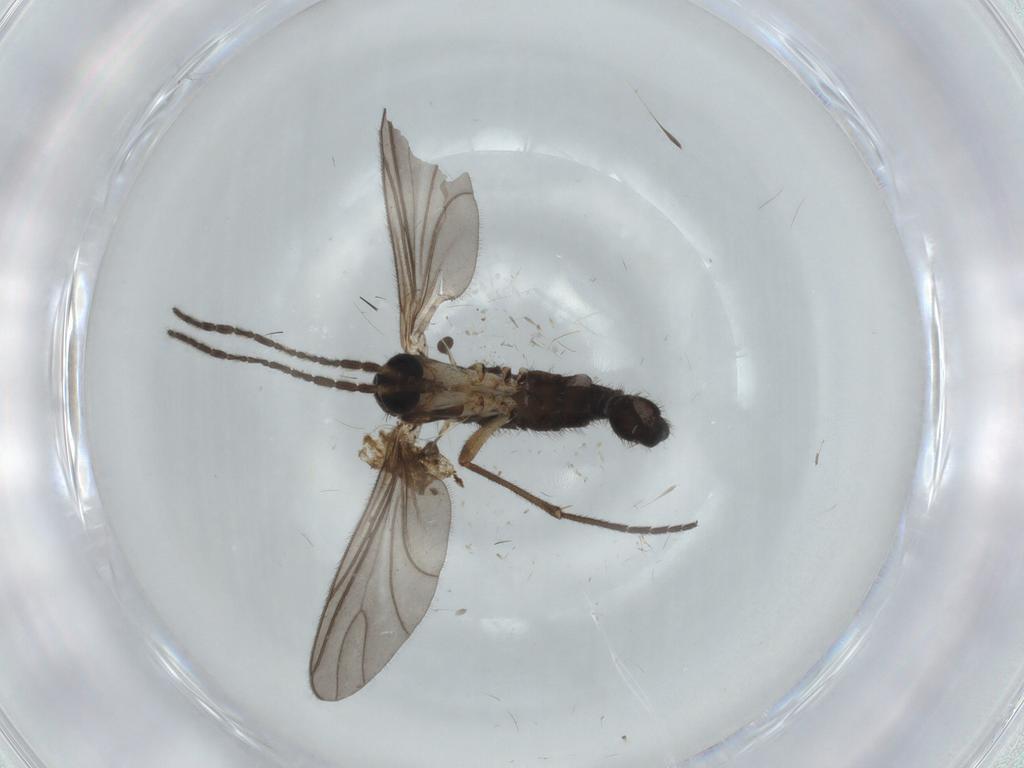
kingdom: Animalia
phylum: Arthropoda
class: Insecta
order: Diptera
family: Sciaridae
